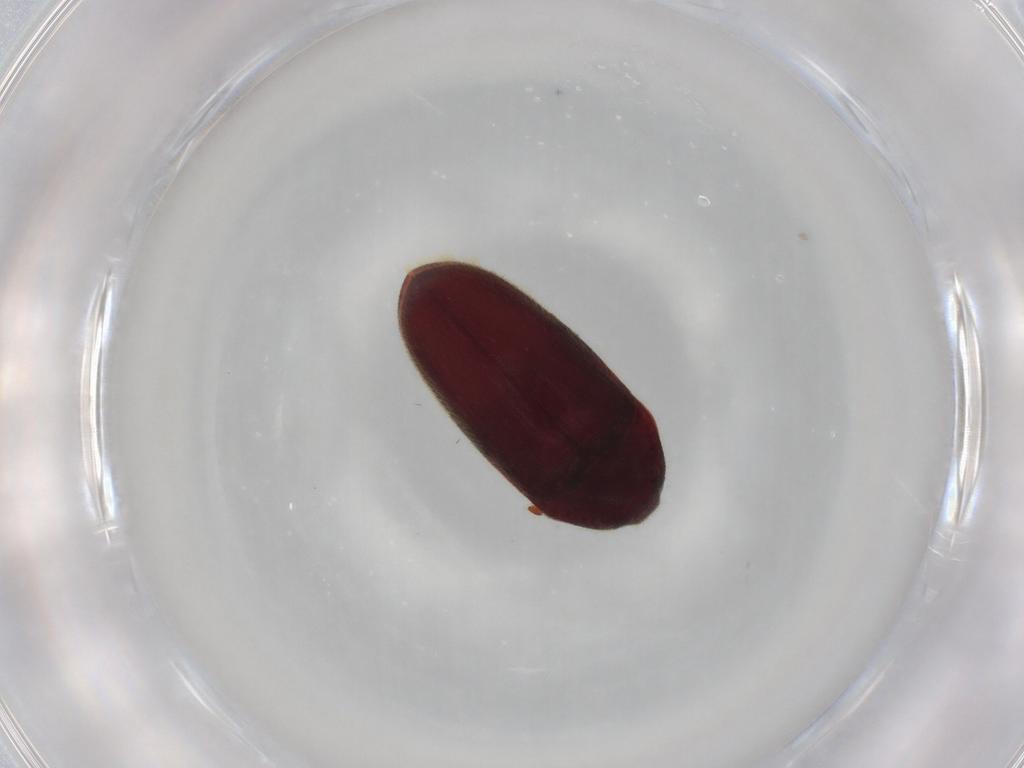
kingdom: Animalia
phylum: Arthropoda
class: Insecta
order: Coleoptera
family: Throscidae
